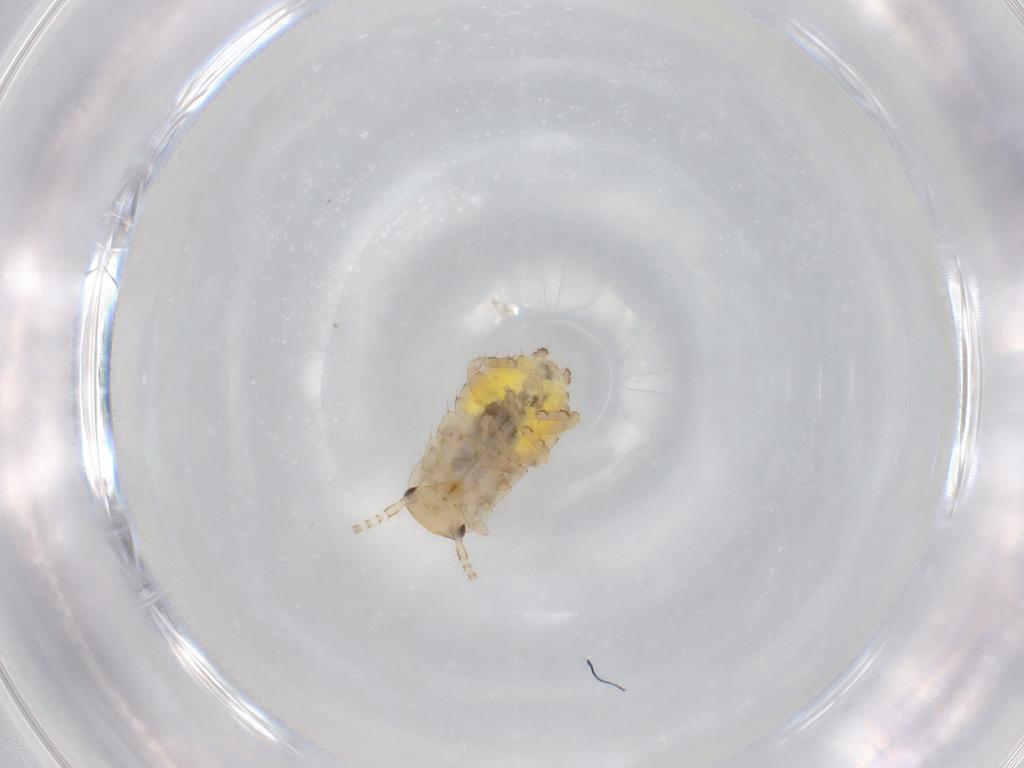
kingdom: Animalia
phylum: Arthropoda
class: Insecta
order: Blattodea
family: Ectobiidae
